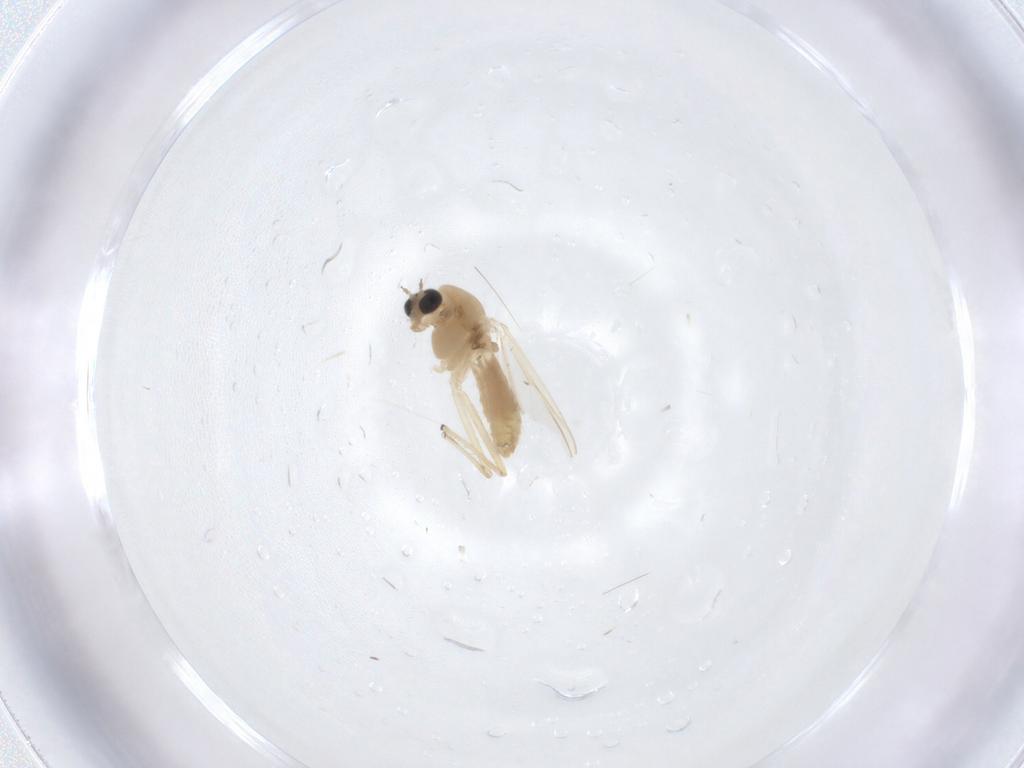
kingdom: Animalia
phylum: Arthropoda
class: Insecta
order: Diptera
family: Chironomidae
